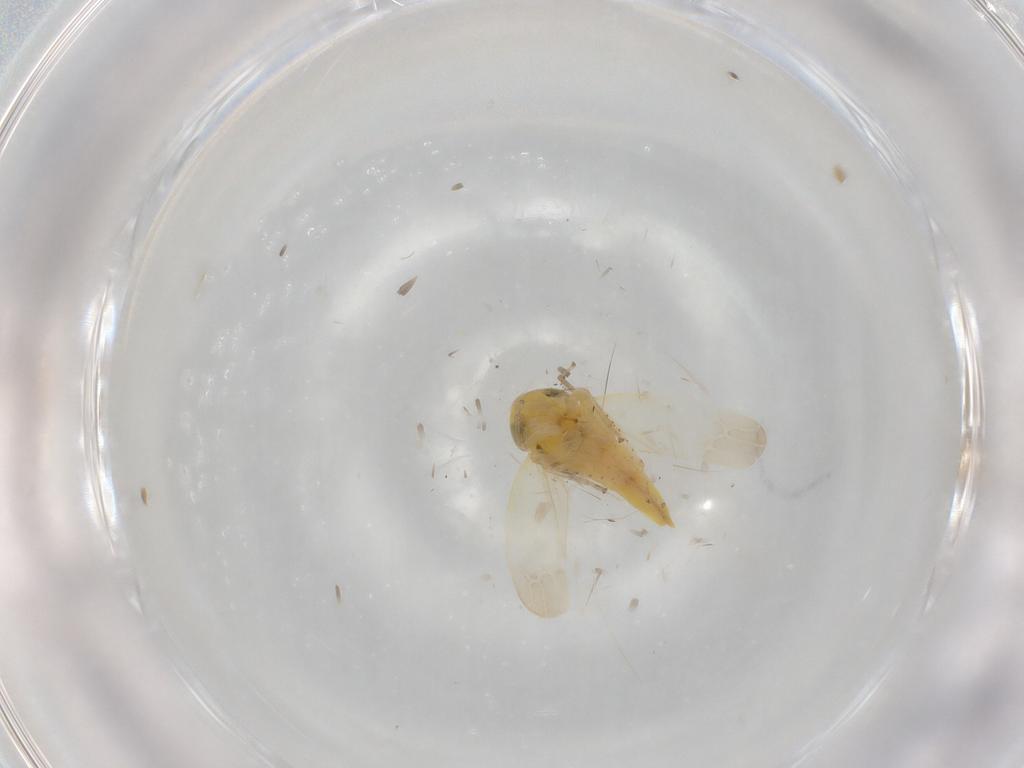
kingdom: Animalia
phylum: Arthropoda
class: Insecta
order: Hemiptera
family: Cicadellidae
